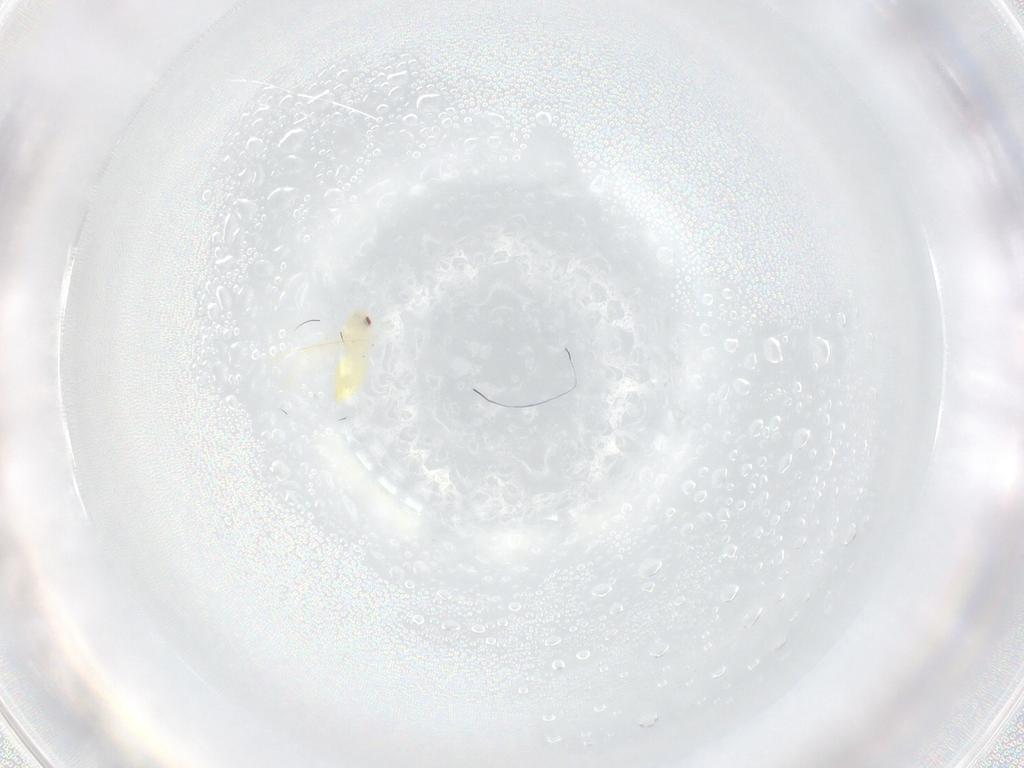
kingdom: Animalia
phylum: Arthropoda
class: Insecta
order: Hemiptera
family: Aleyrodidae
